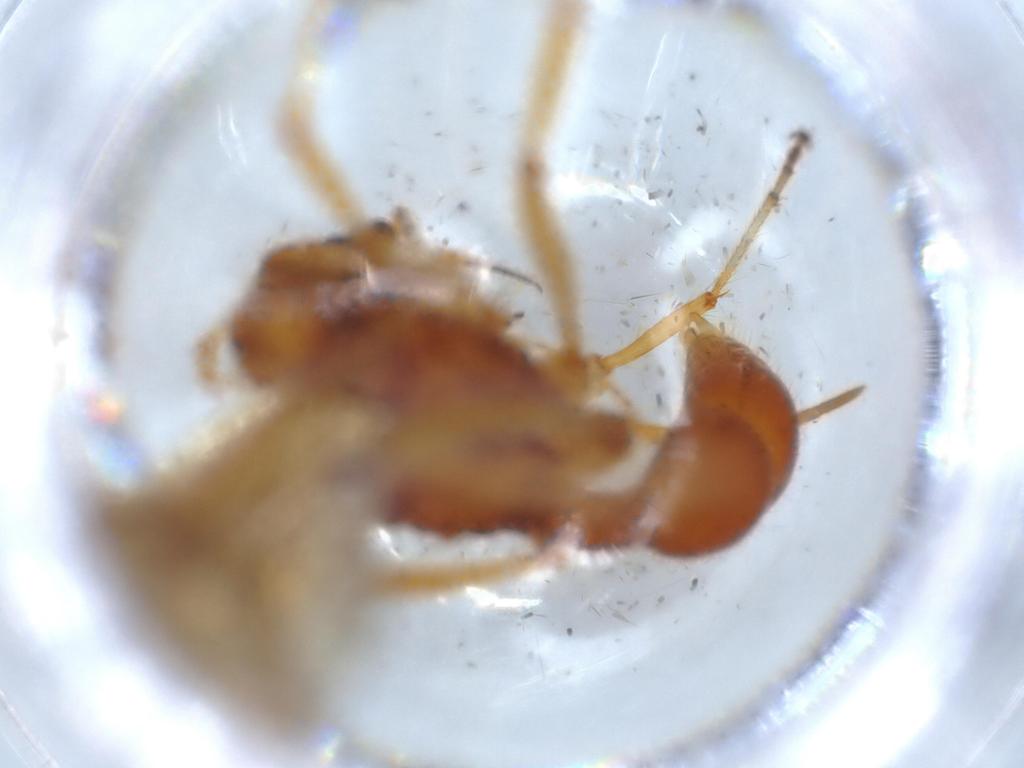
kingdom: Animalia
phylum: Arthropoda
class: Insecta
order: Hymenoptera
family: Formicidae
